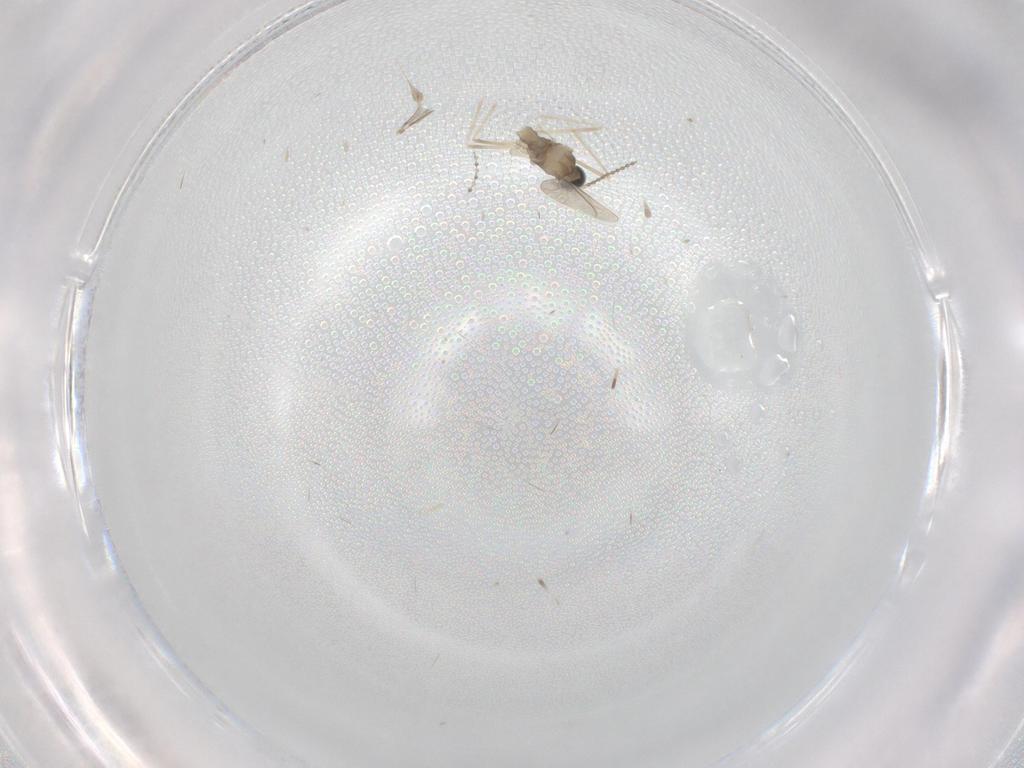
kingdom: Animalia
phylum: Arthropoda
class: Insecta
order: Diptera
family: Cecidomyiidae
